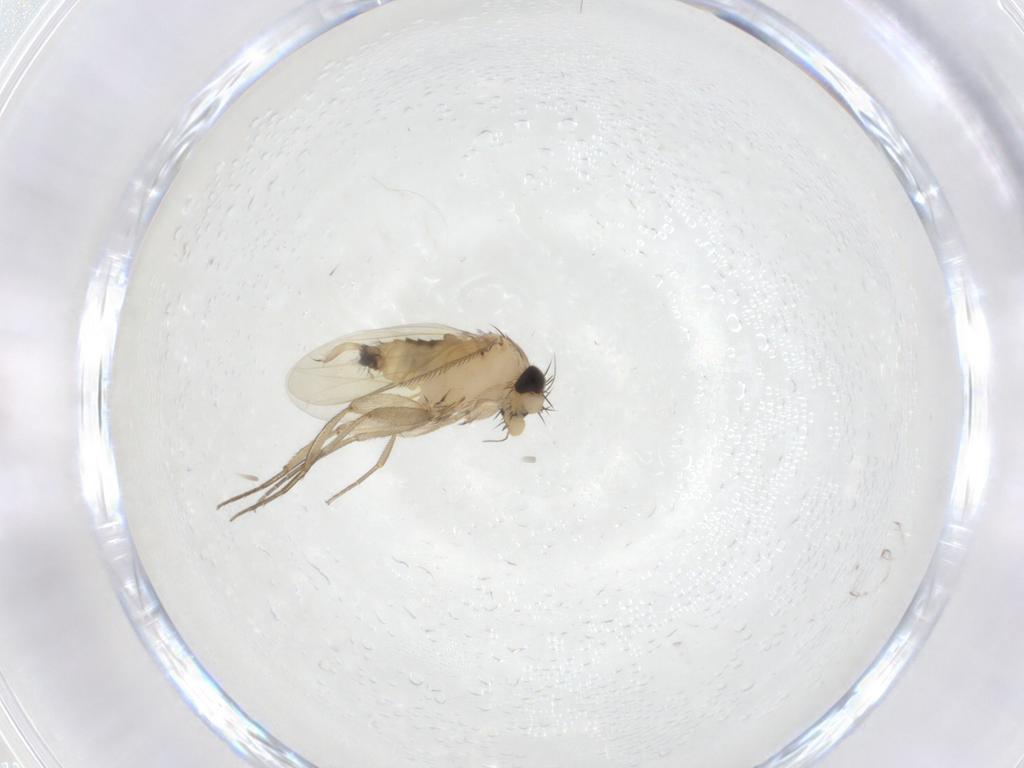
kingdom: Animalia
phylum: Arthropoda
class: Insecta
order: Diptera
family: Phoridae
